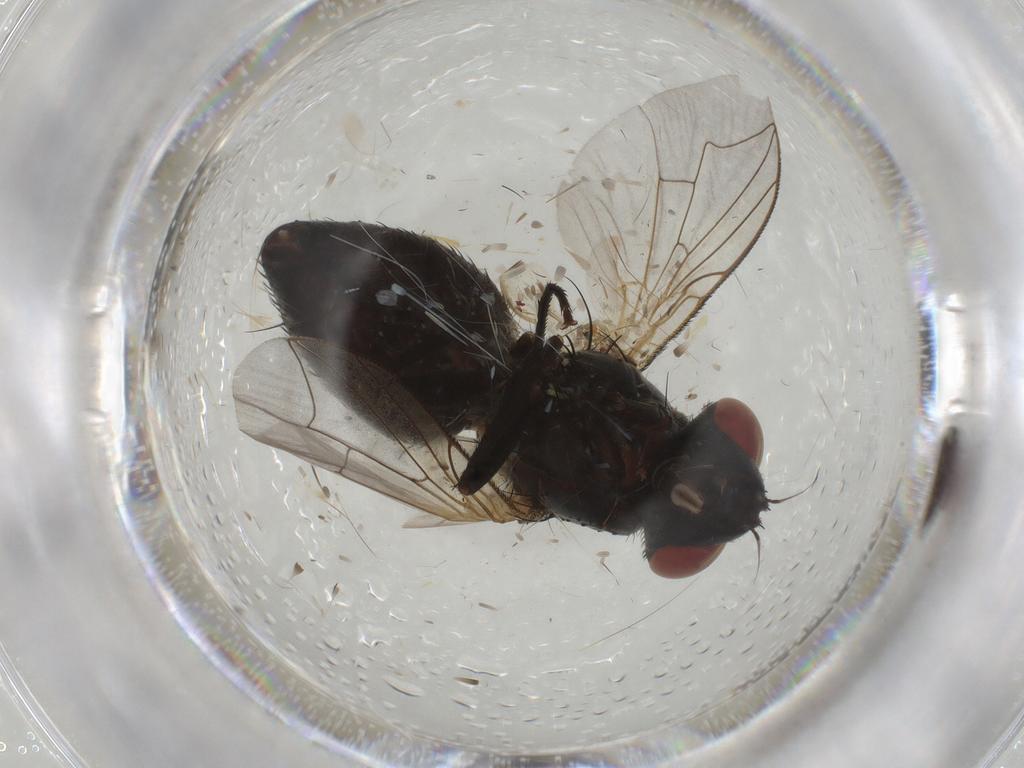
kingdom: Animalia
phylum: Arthropoda
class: Insecta
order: Diptera
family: Sarcophagidae
